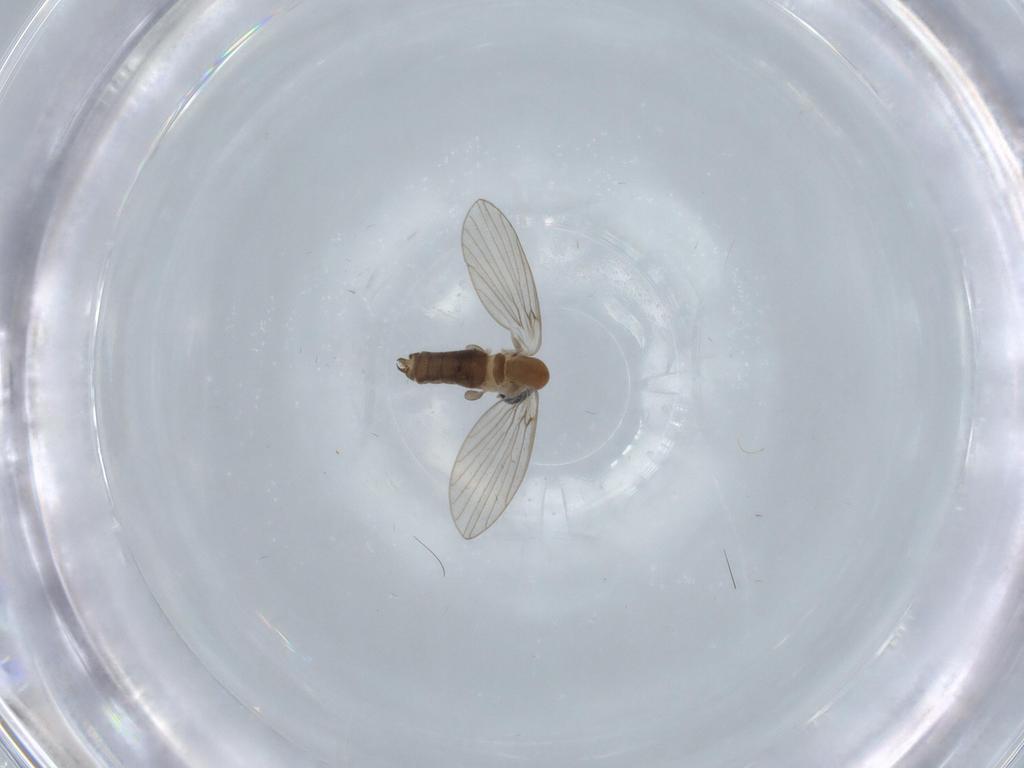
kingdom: Animalia
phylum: Arthropoda
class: Insecta
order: Diptera
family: Psychodidae
